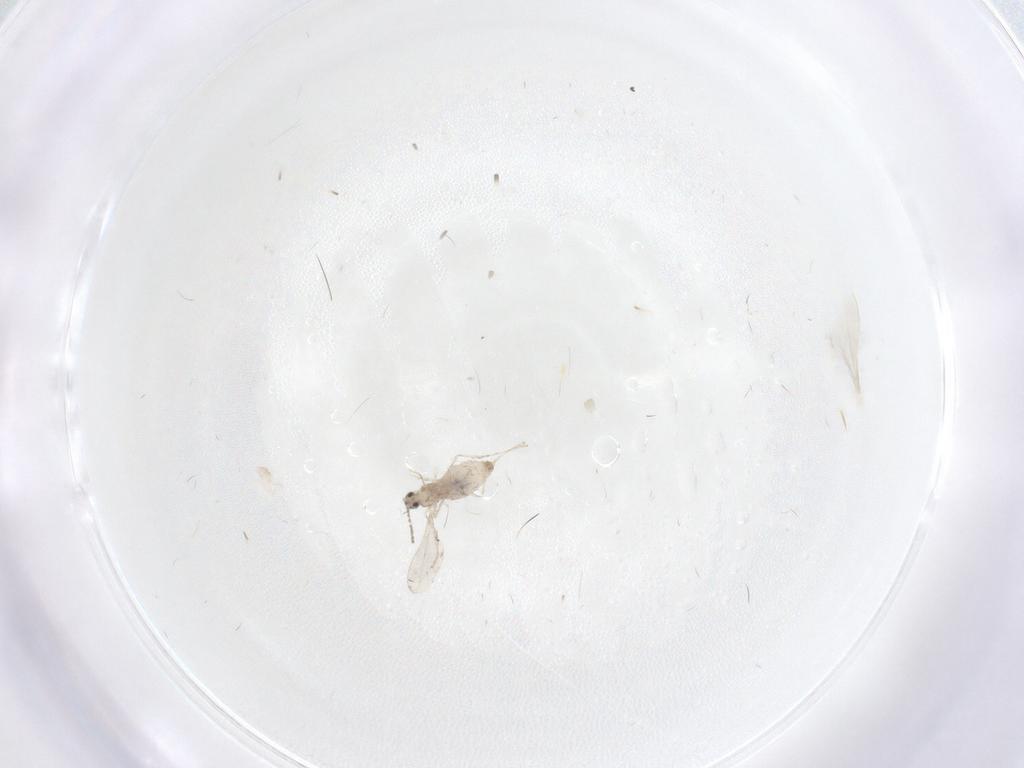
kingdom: Animalia
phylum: Arthropoda
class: Insecta
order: Diptera
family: Cecidomyiidae
